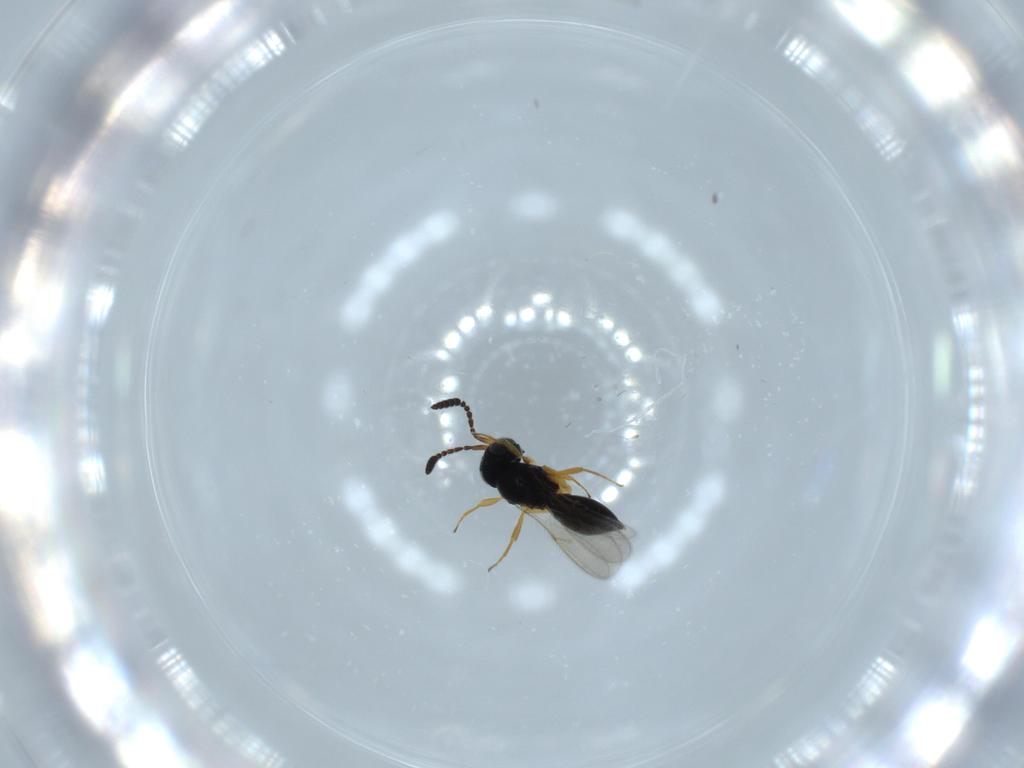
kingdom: Animalia
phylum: Arthropoda
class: Insecta
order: Hymenoptera
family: Scelionidae
